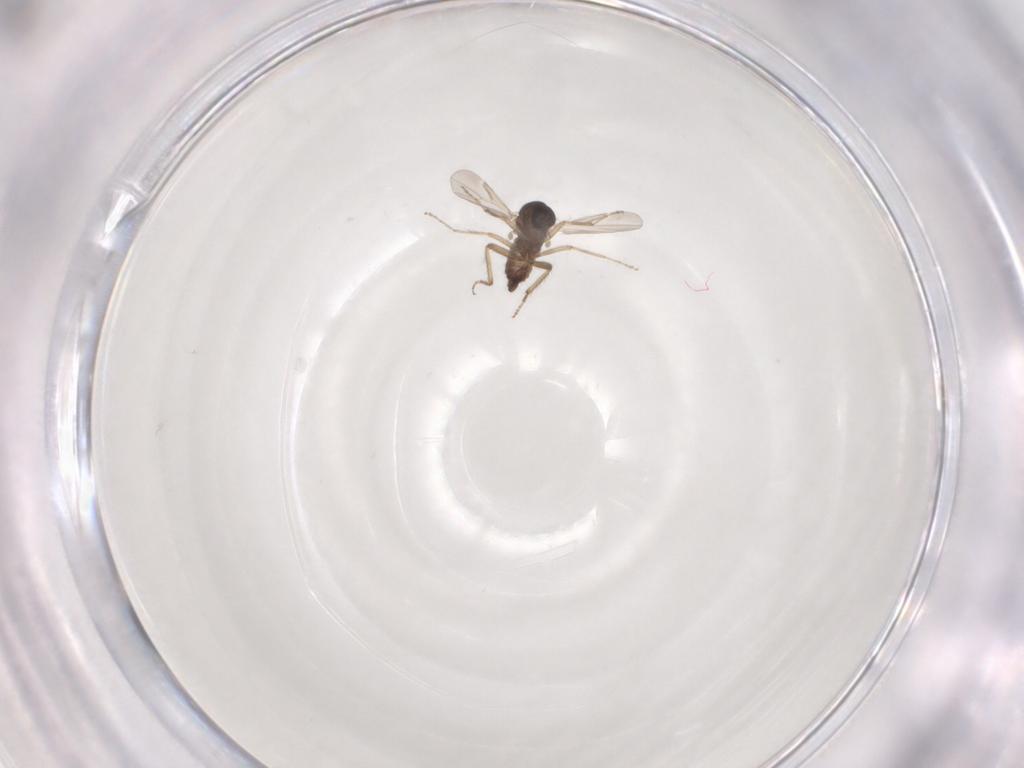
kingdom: Animalia
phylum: Arthropoda
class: Insecta
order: Diptera
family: Ceratopogonidae
